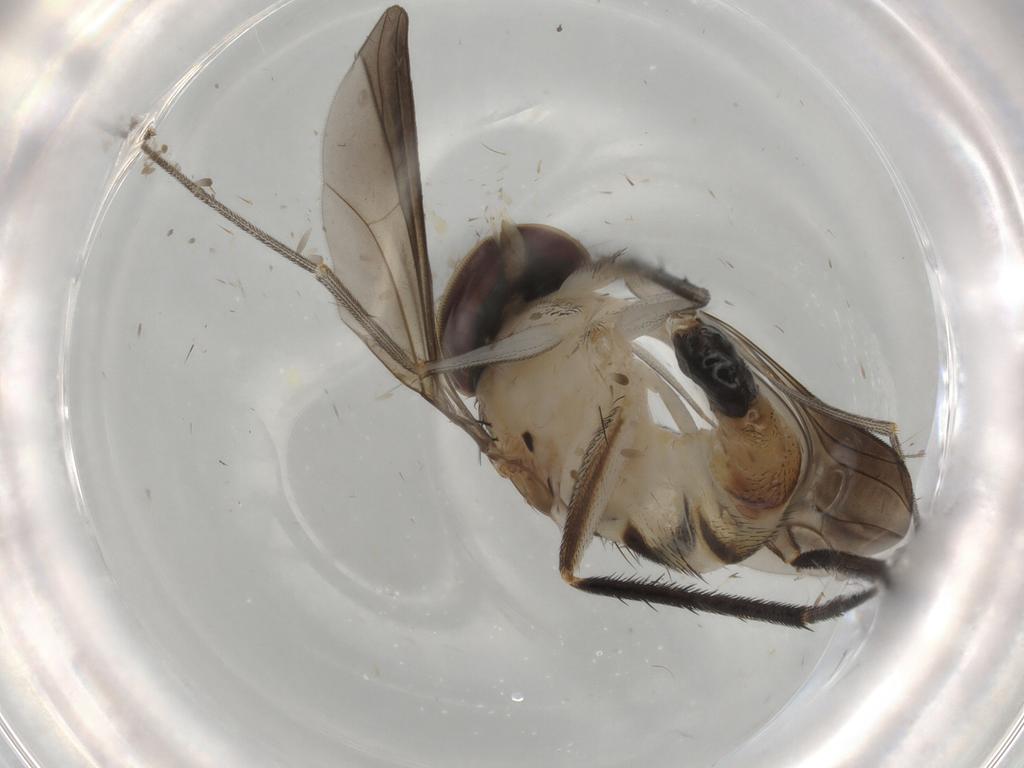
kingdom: Animalia
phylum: Arthropoda
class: Insecta
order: Diptera
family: Dolichopodidae
